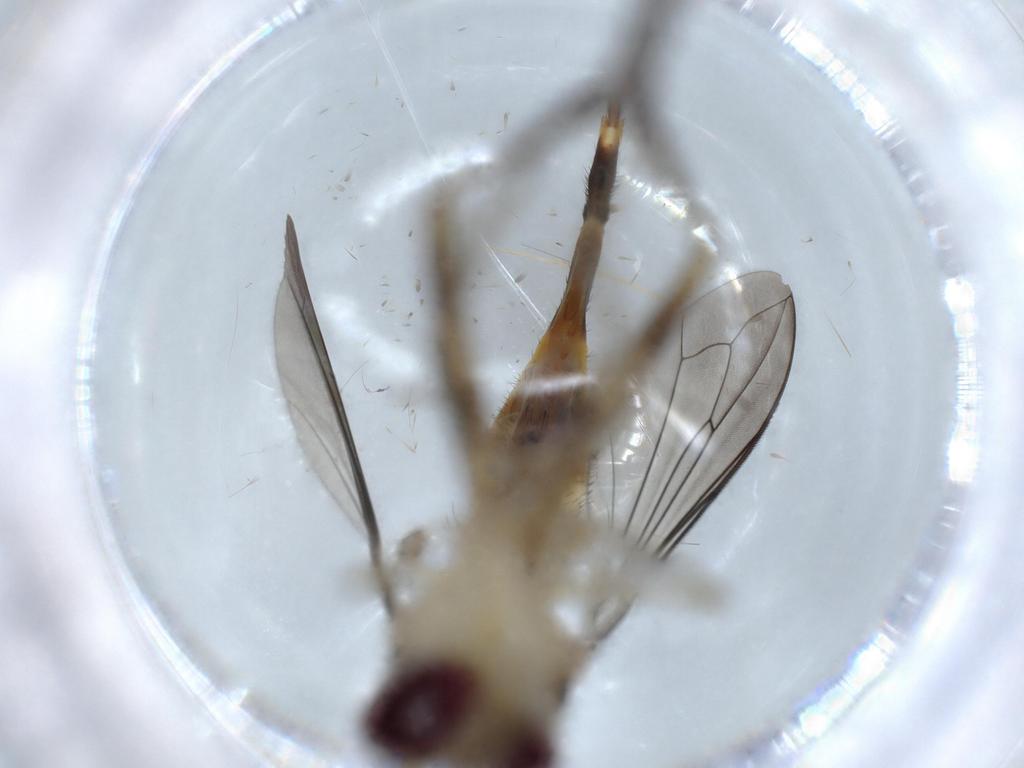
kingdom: Animalia
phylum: Arthropoda
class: Insecta
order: Diptera
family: Conopidae
